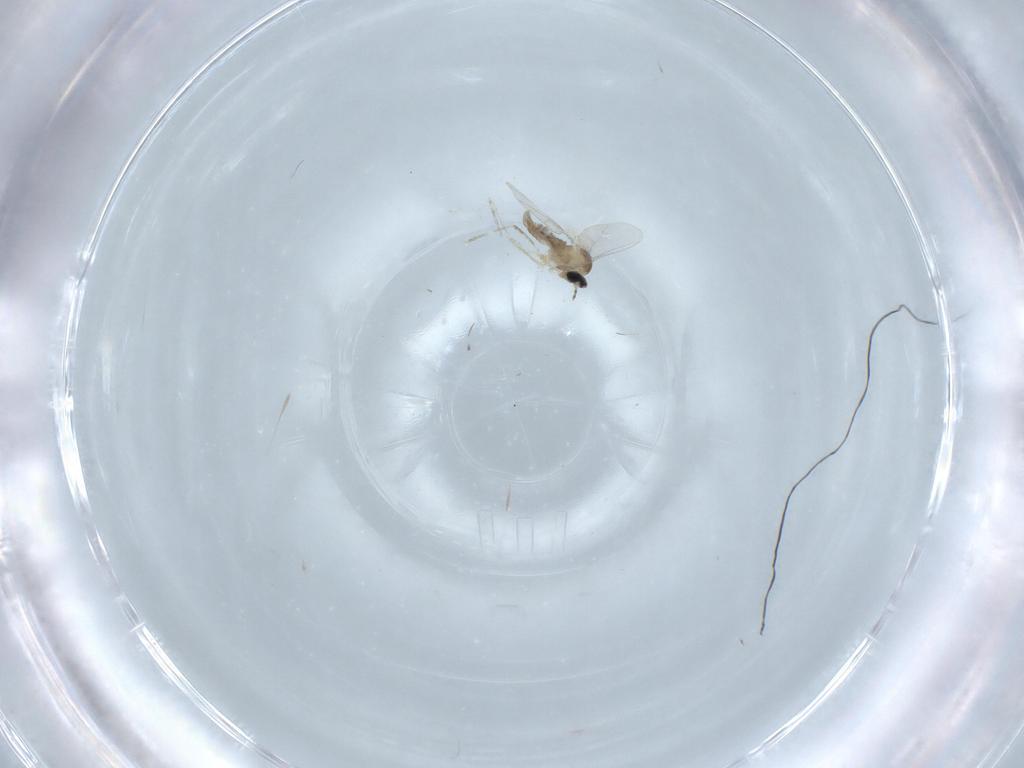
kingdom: Animalia
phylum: Arthropoda
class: Insecta
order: Diptera
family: Cecidomyiidae
